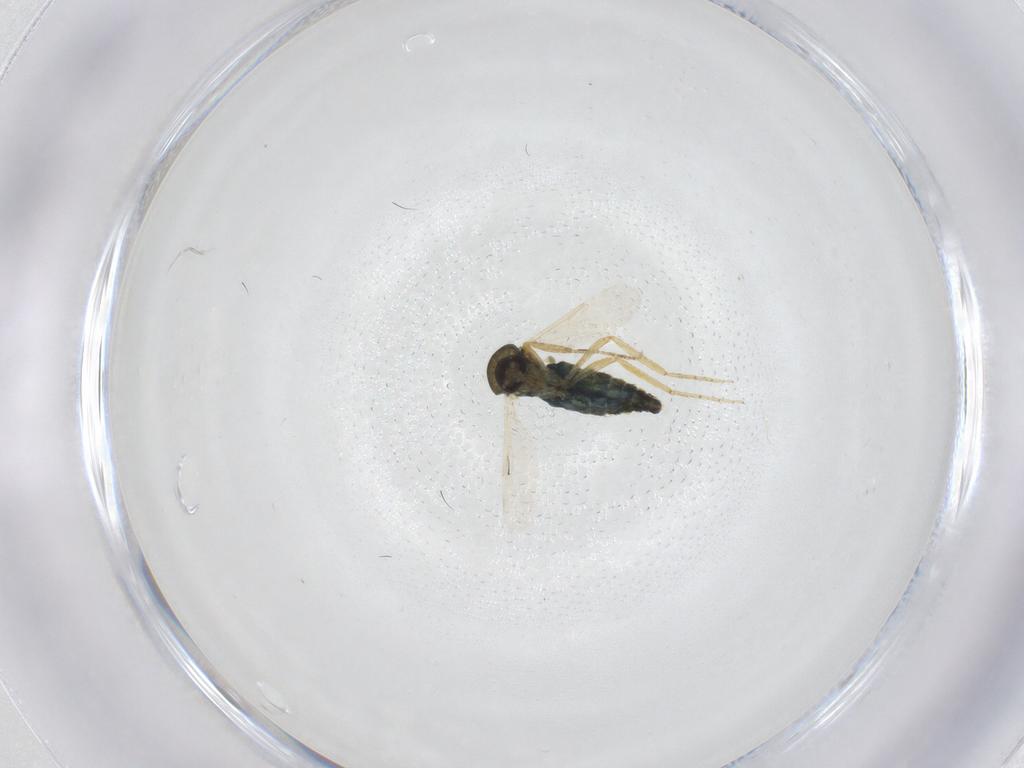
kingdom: Animalia
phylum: Arthropoda
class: Insecta
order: Diptera
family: Ceratopogonidae
